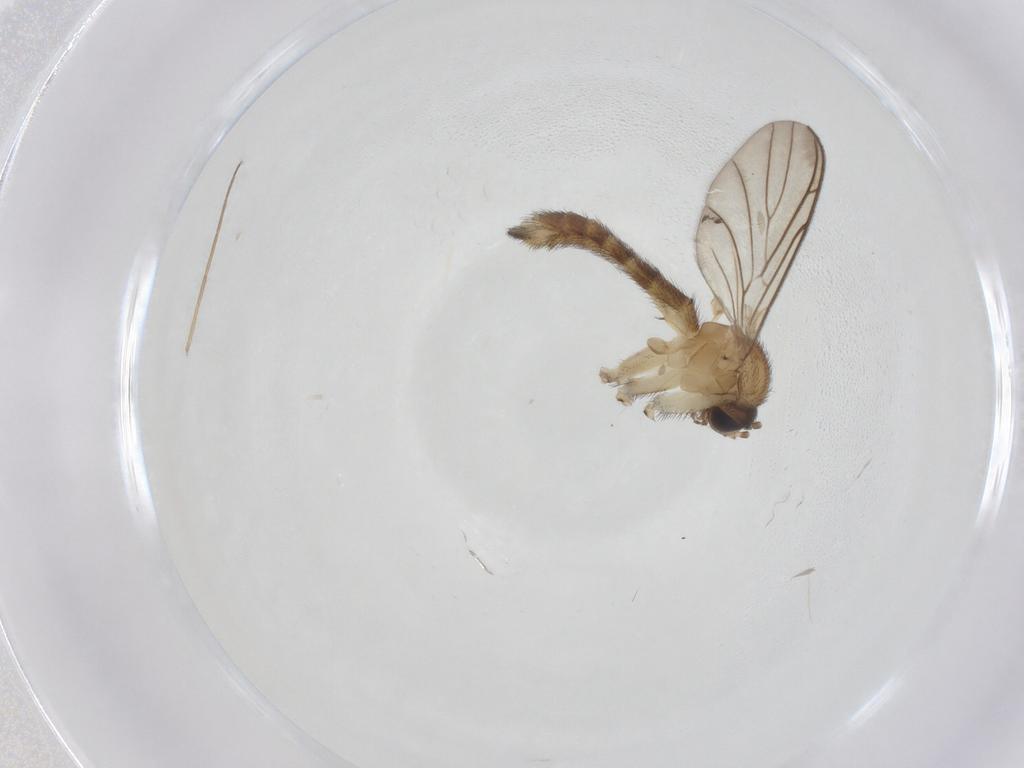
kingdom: Animalia
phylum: Arthropoda
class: Insecta
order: Diptera
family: Keroplatidae
